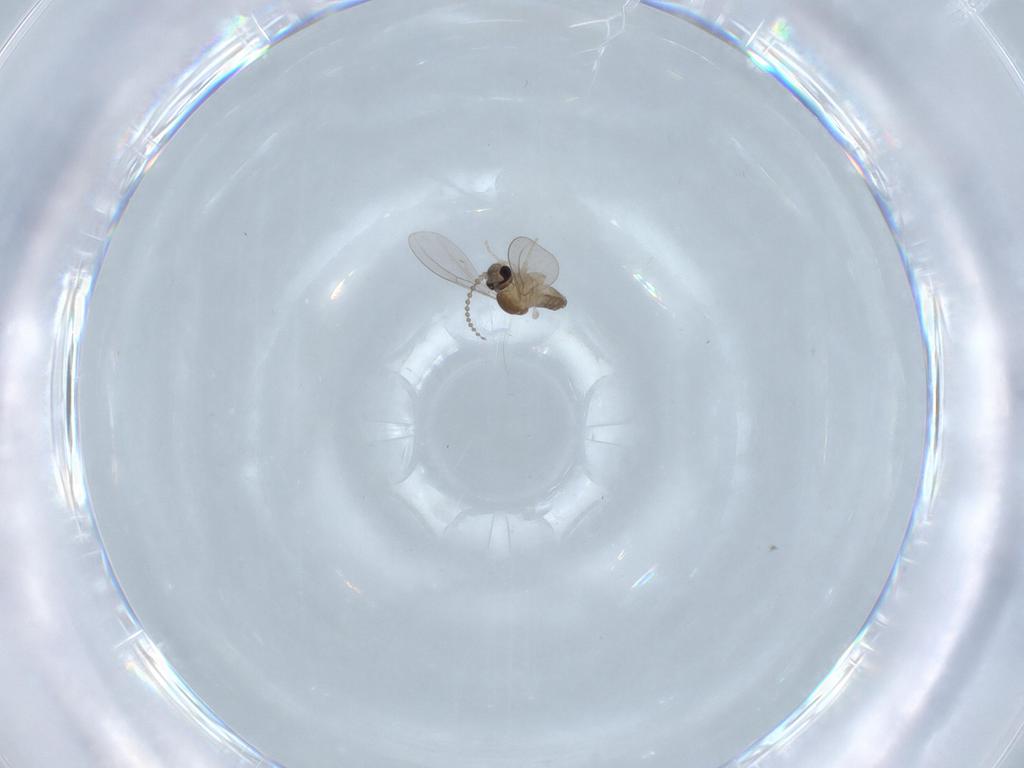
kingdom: Animalia
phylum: Arthropoda
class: Insecta
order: Diptera
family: Cecidomyiidae
